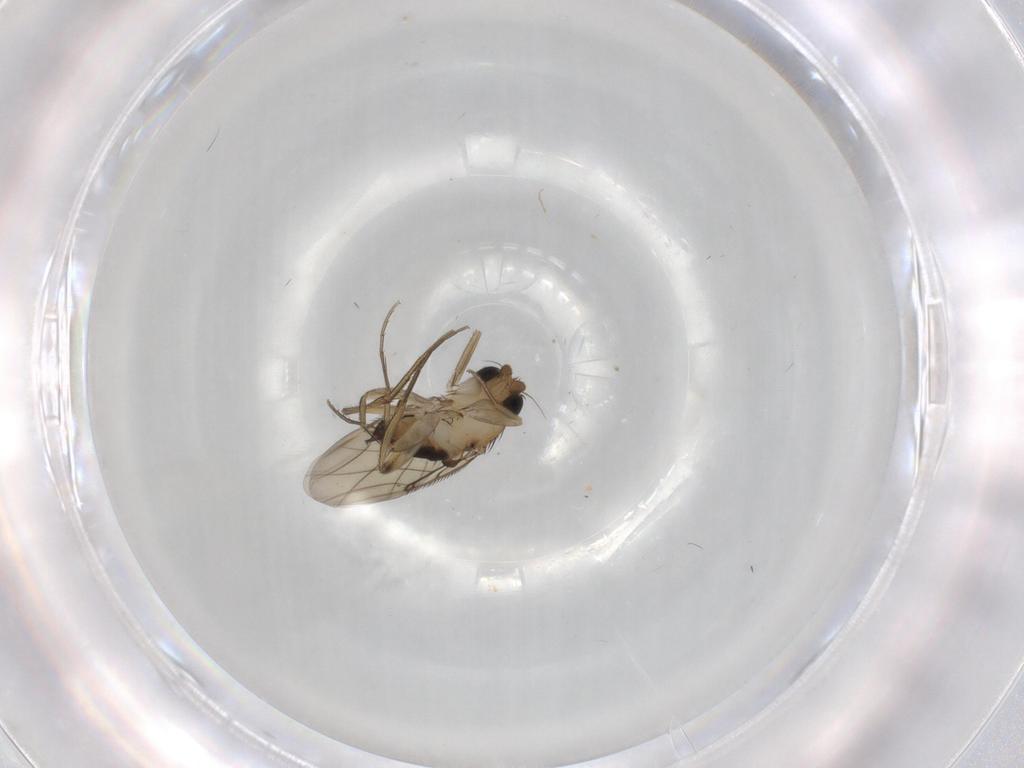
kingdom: Animalia
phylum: Arthropoda
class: Insecta
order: Diptera
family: Phoridae
